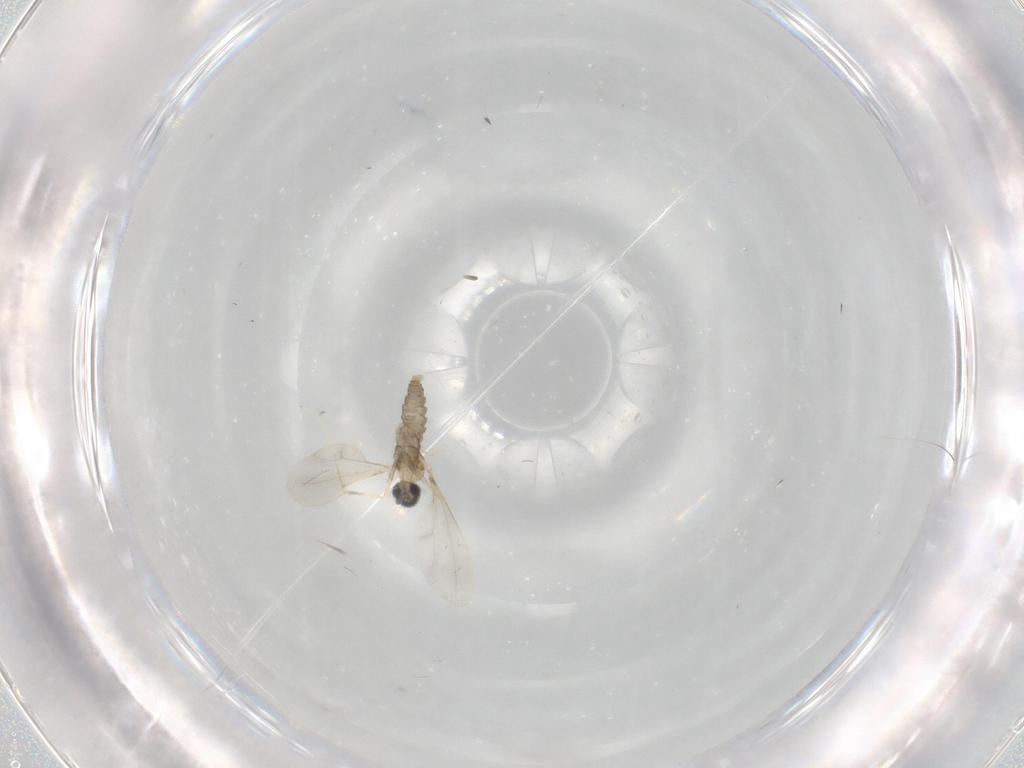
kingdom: Animalia
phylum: Arthropoda
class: Insecta
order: Diptera
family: Cecidomyiidae
